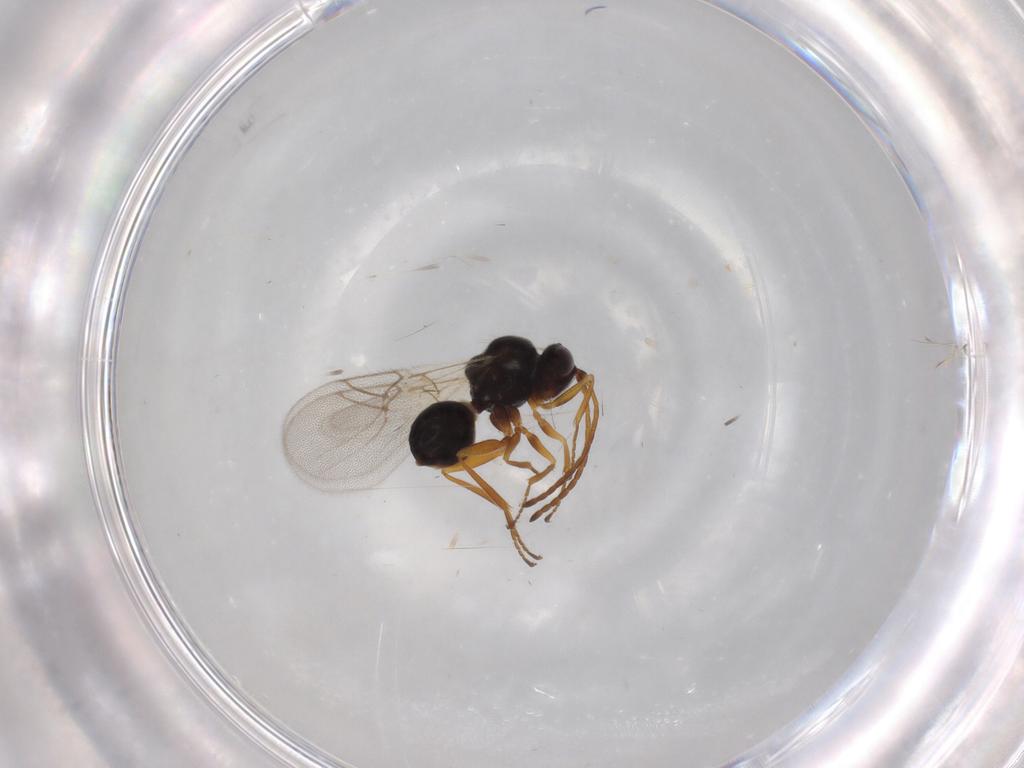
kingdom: Animalia
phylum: Arthropoda
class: Insecta
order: Hymenoptera
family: Figitidae
